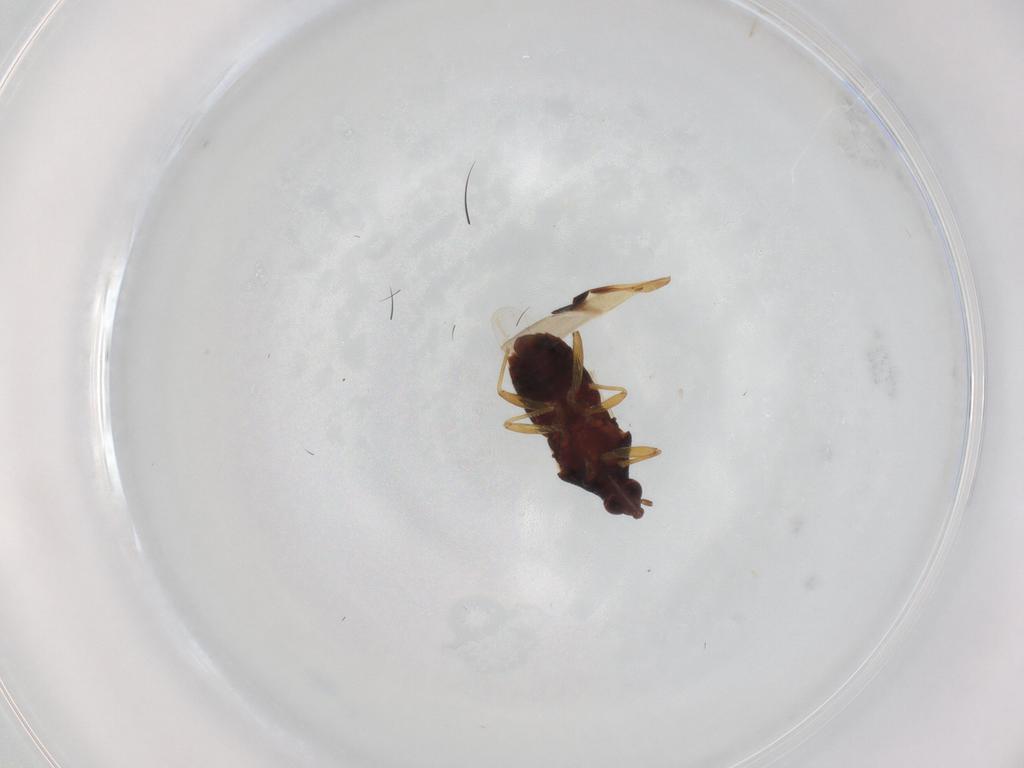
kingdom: Animalia
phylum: Arthropoda
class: Insecta
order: Hemiptera
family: Anthocoridae
